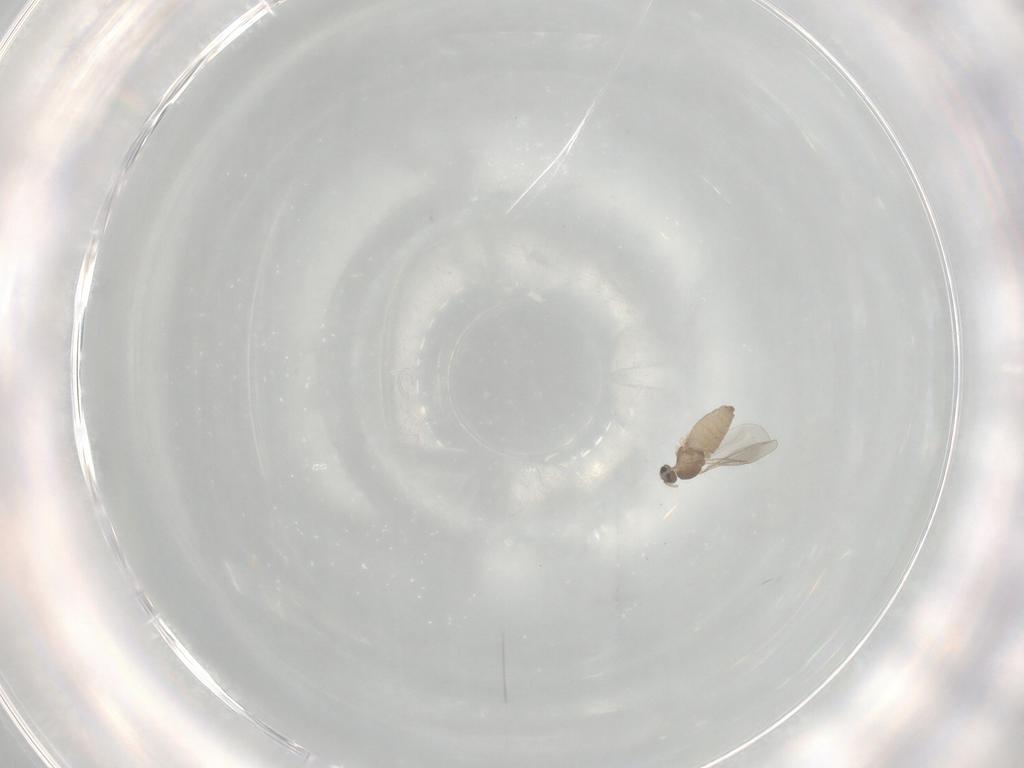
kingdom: Animalia
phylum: Arthropoda
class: Insecta
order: Diptera
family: Cecidomyiidae
